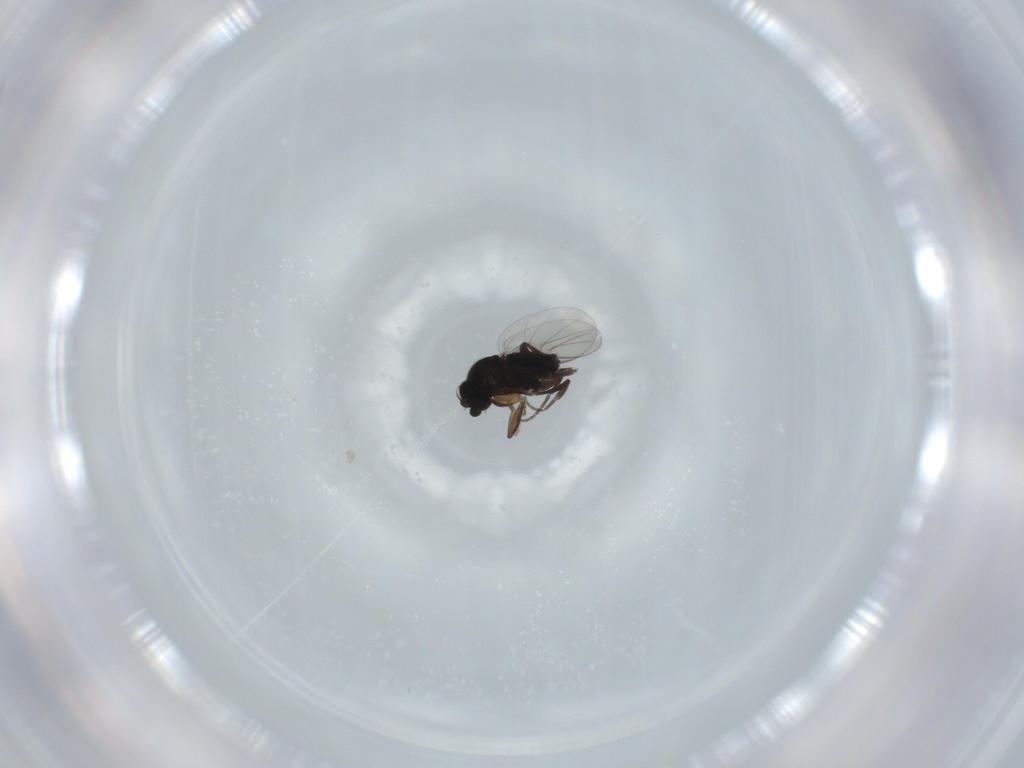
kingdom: Animalia
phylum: Arthropoda
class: Insecta
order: Diptera
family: Phoridae
